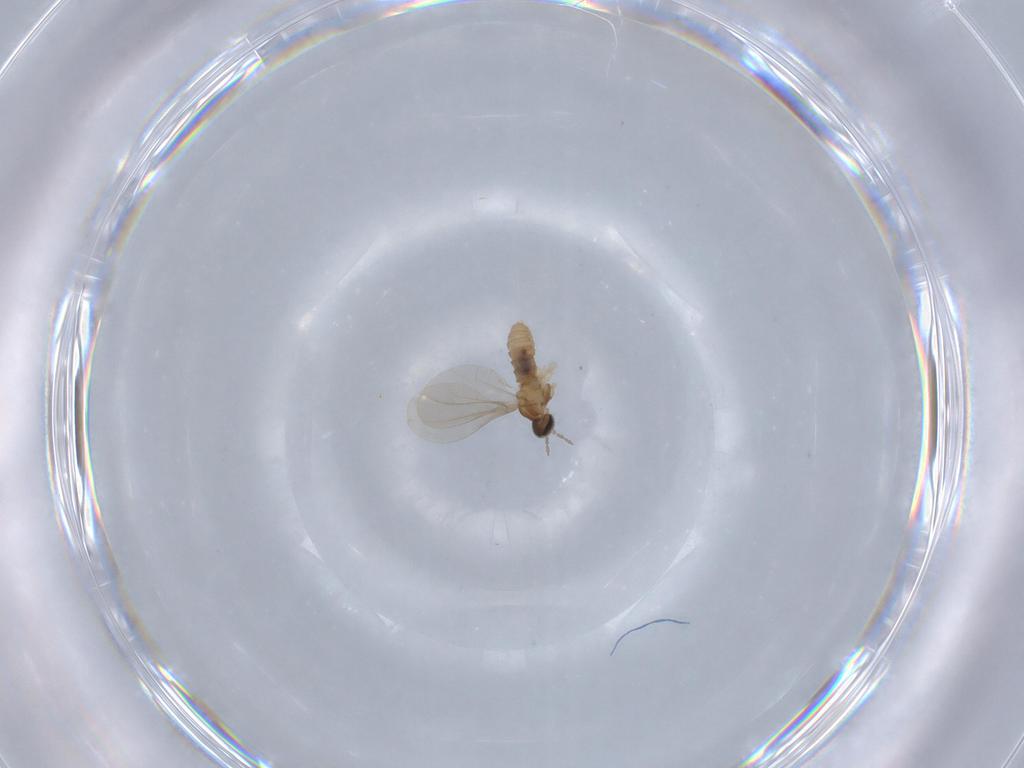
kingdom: Animalia
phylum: Arthropoda
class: Insecta
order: Diptera
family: Cecidomyiidae
